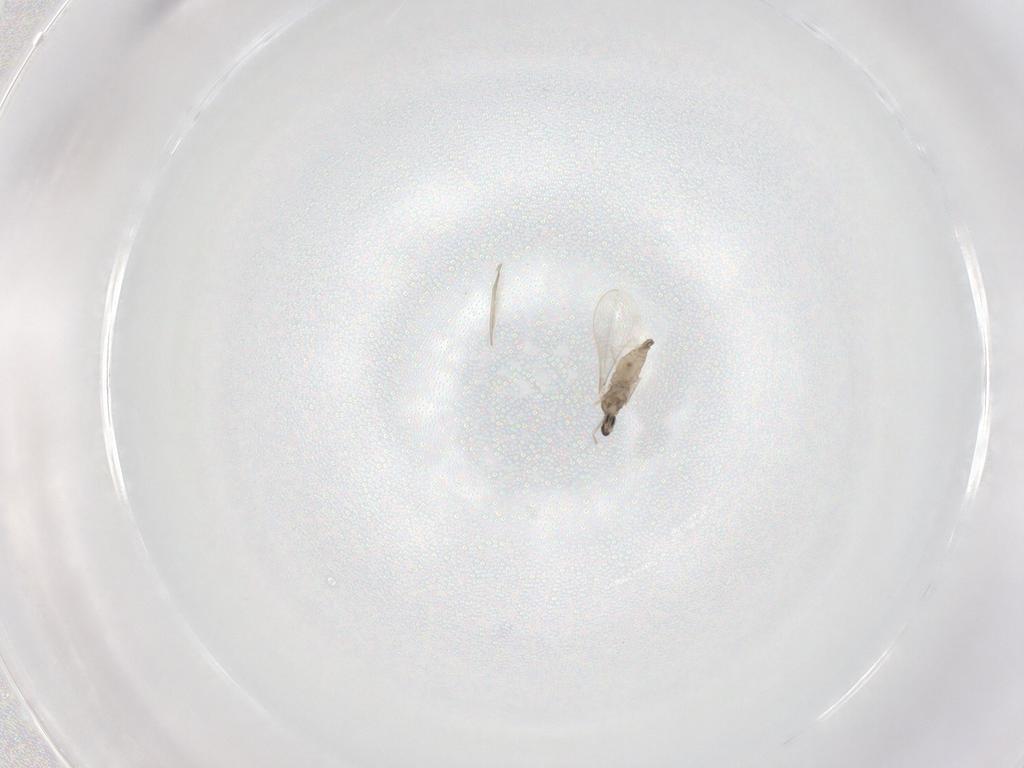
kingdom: Animalia
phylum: Arthropoda
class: Insecta
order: Diptera
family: Cecidomyiidae
